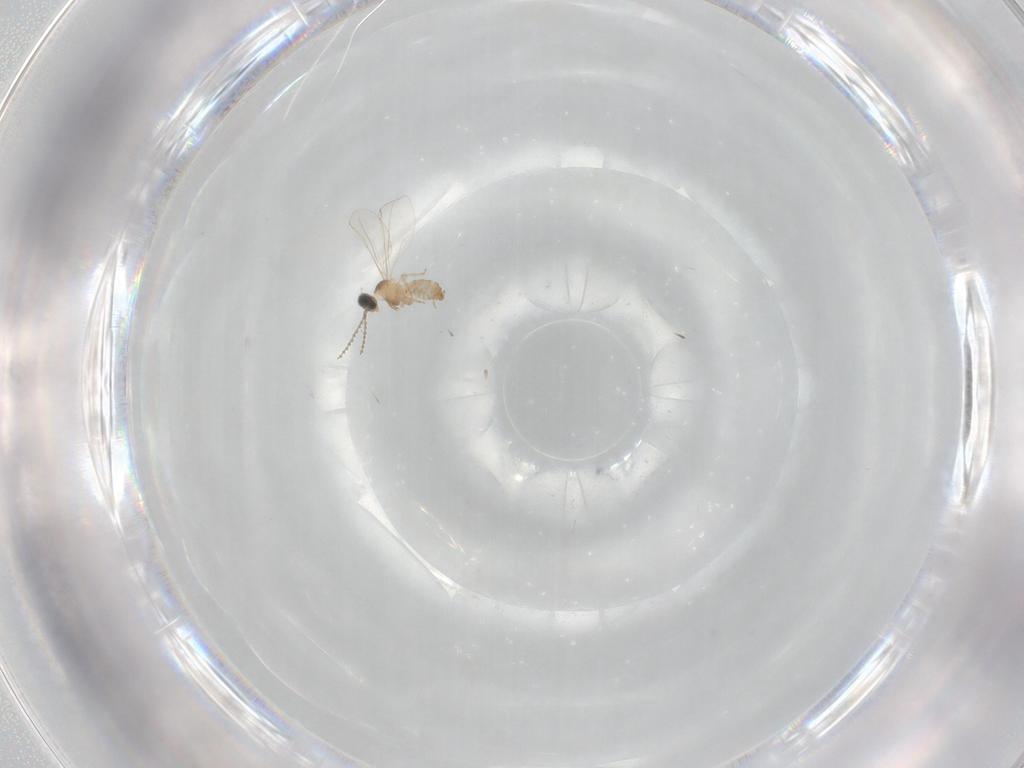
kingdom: Animalia
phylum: Arthropoda
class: Insecta
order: Diptera
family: Cecidomyiidae
